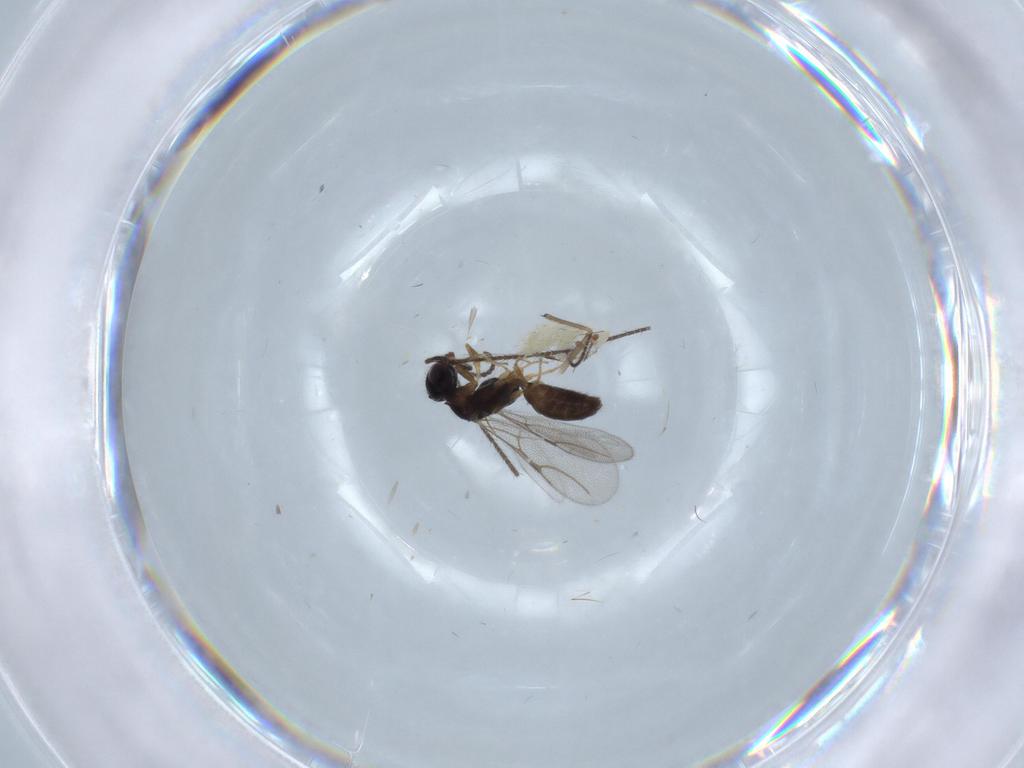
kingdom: Animalia
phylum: Arthropoda
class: Insecta
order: Hymenoptera
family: Bethylidae
